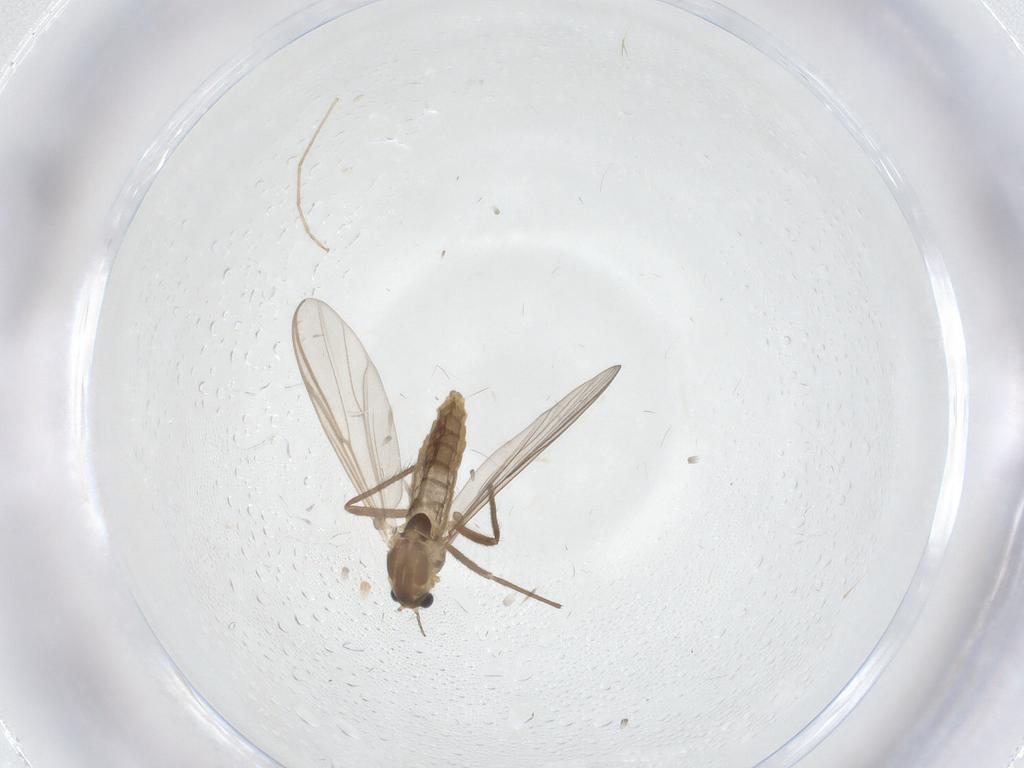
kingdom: Animalia
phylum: Arthropoda
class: Insecta
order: Diptera
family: Chironomidae
